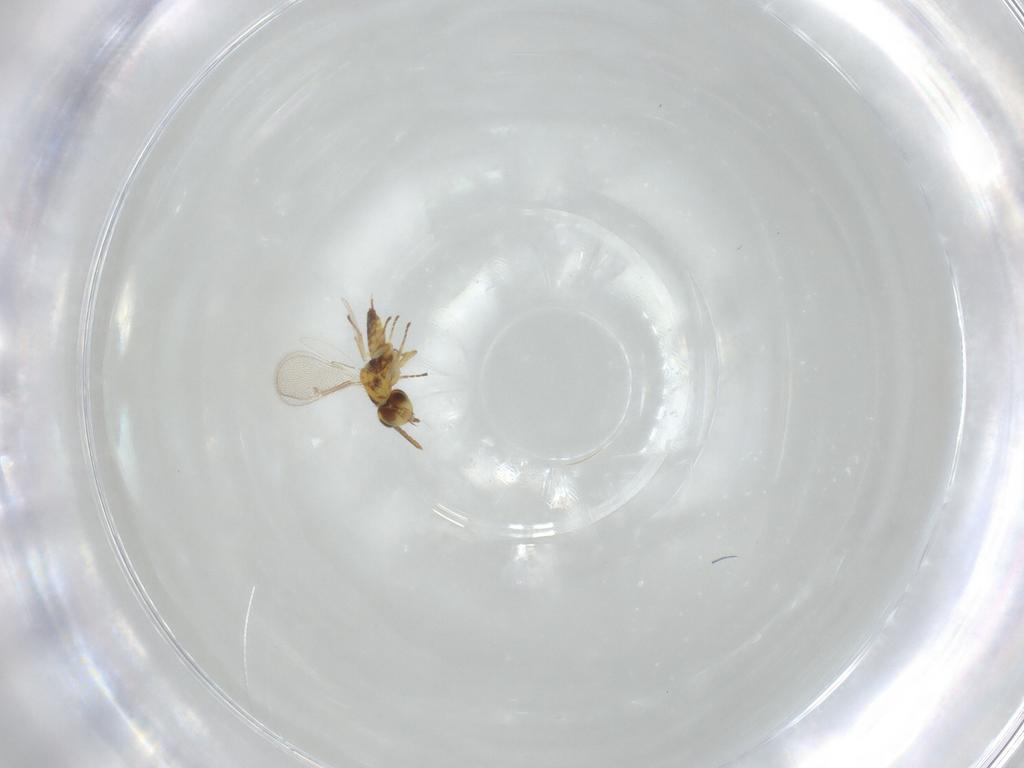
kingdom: Animalia
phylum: Arthropoda
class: Insecta
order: Hymenoptera
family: Eulophidae
